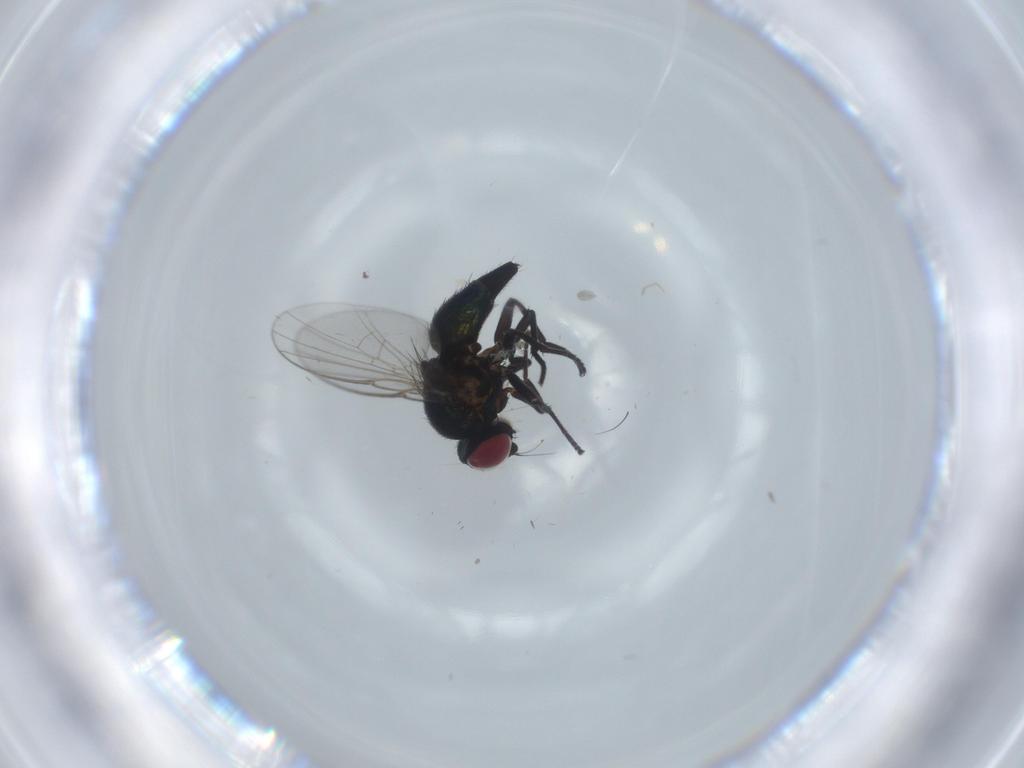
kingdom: Animalia
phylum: Arthropoda
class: Insecta
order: Diptera
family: Agromyzidae
